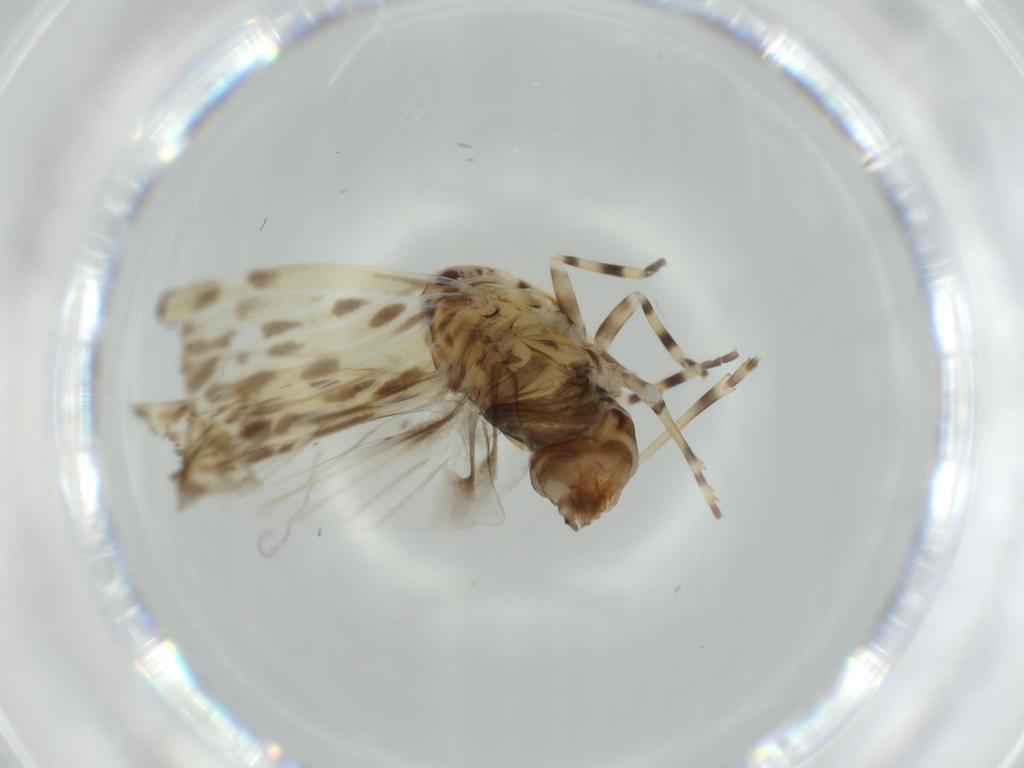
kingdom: Animalia
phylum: Arthropoda
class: Insecta
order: Hemiptera
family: Derbidae
